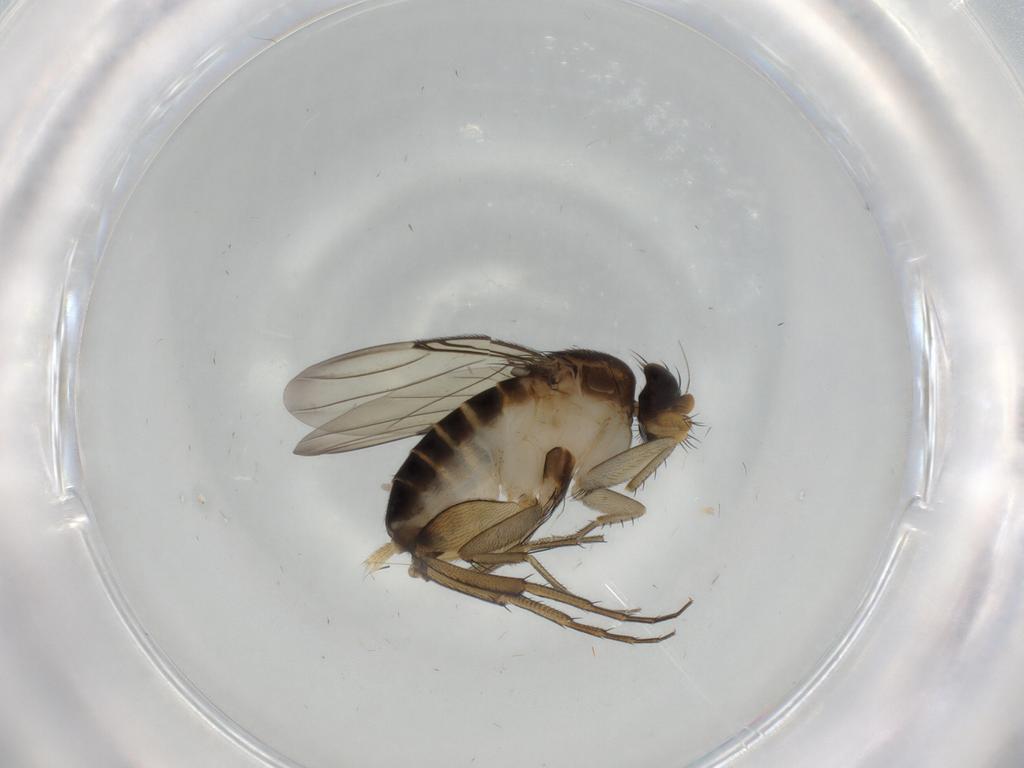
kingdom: Animalia
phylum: Arthropoda
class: Insecta
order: Diptera
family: Phoridae
